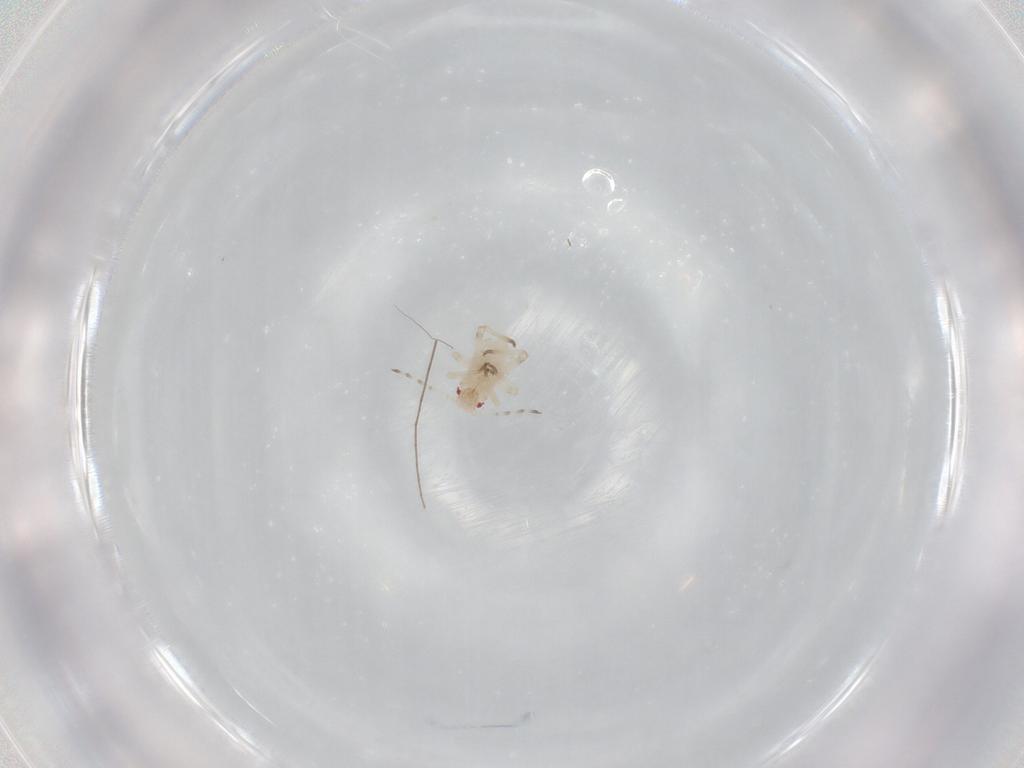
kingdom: Animalia
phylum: Arthropoda
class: Insecta
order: Hemiptera
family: Aphididae
